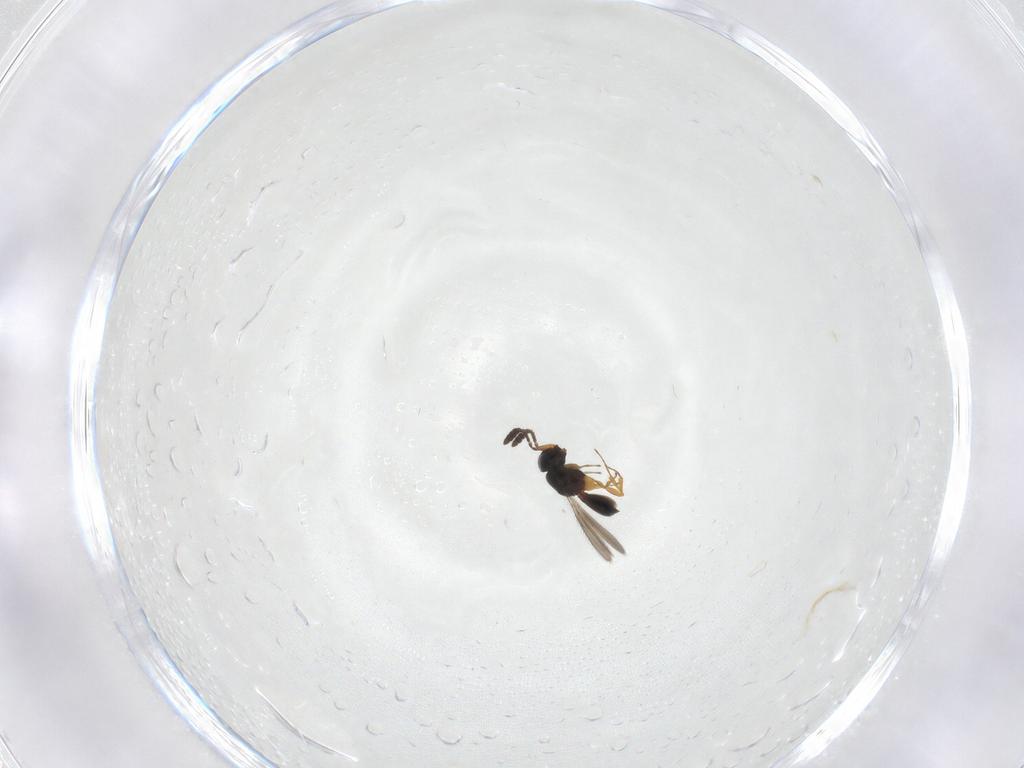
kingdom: Animalia
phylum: Arthropoda
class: Insecta
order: Hymenoptera
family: Scelionidae
